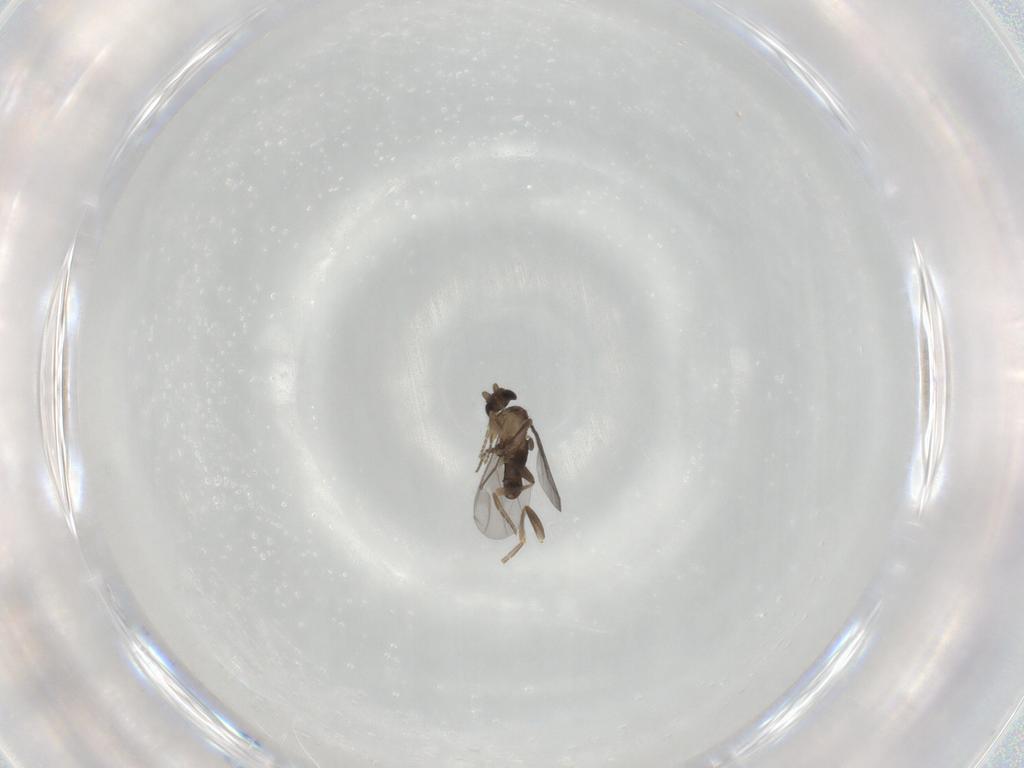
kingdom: Animalia
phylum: Arthropoda
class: Insecta
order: Diptera
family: Phoridae
